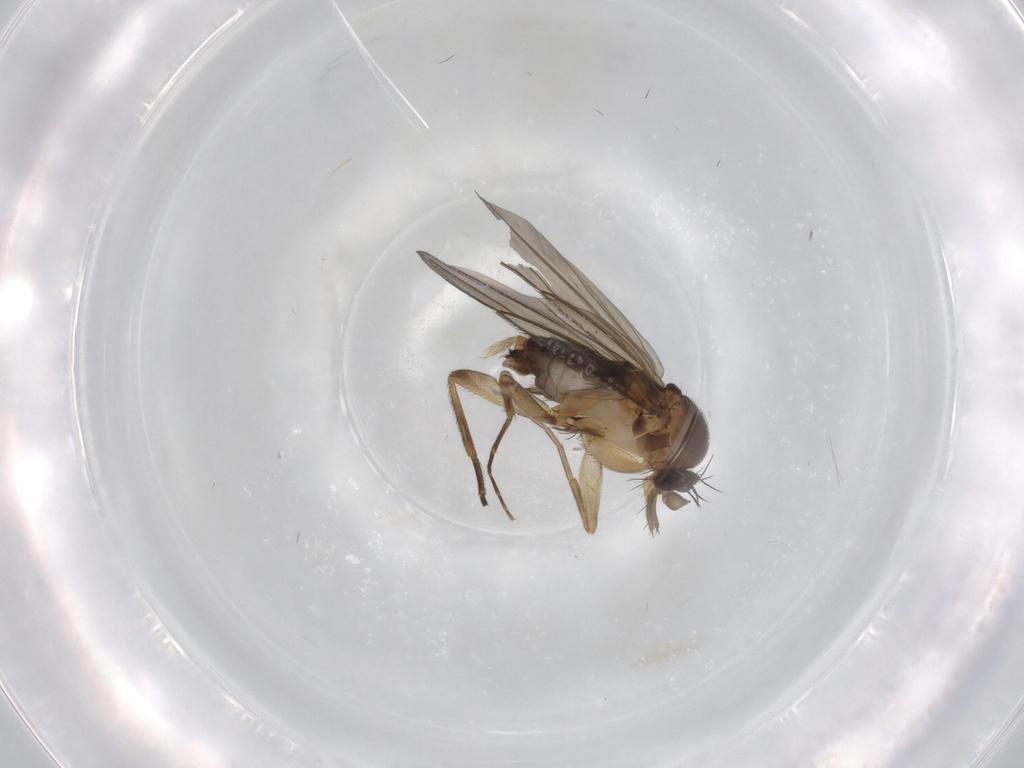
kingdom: Animalia
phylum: Arthropoda
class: Insecta
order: Diptera
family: Phoridae
